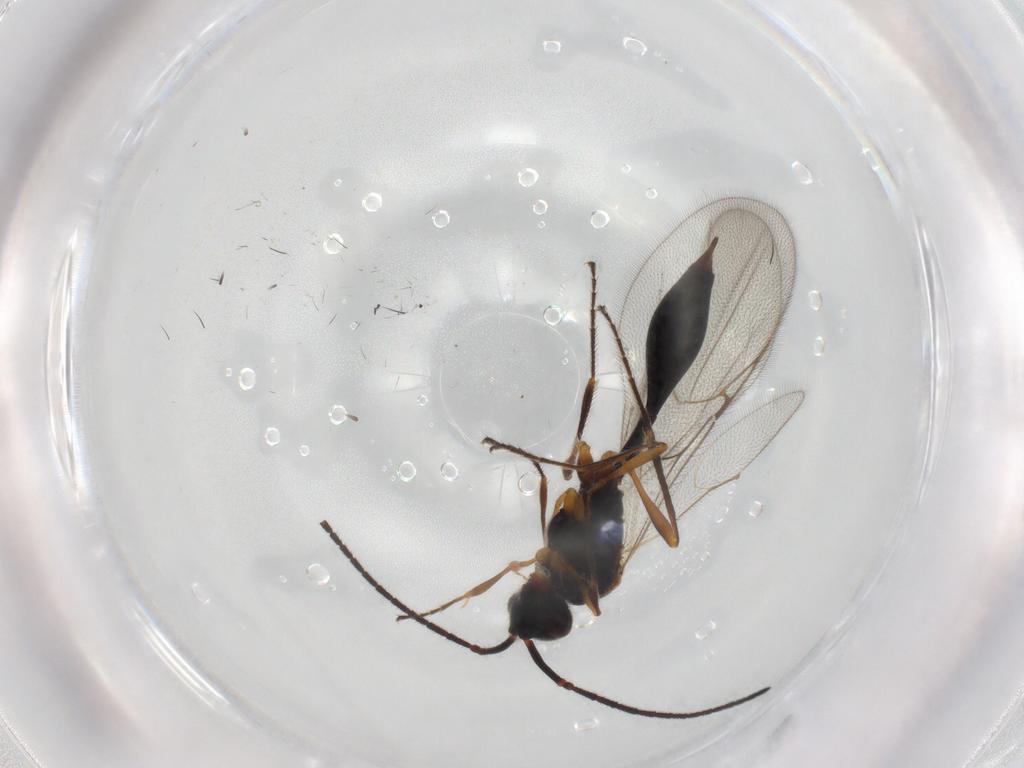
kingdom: Animalia
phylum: Arthropoda
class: Insecta
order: Hymenoptera
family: Diapriidae
